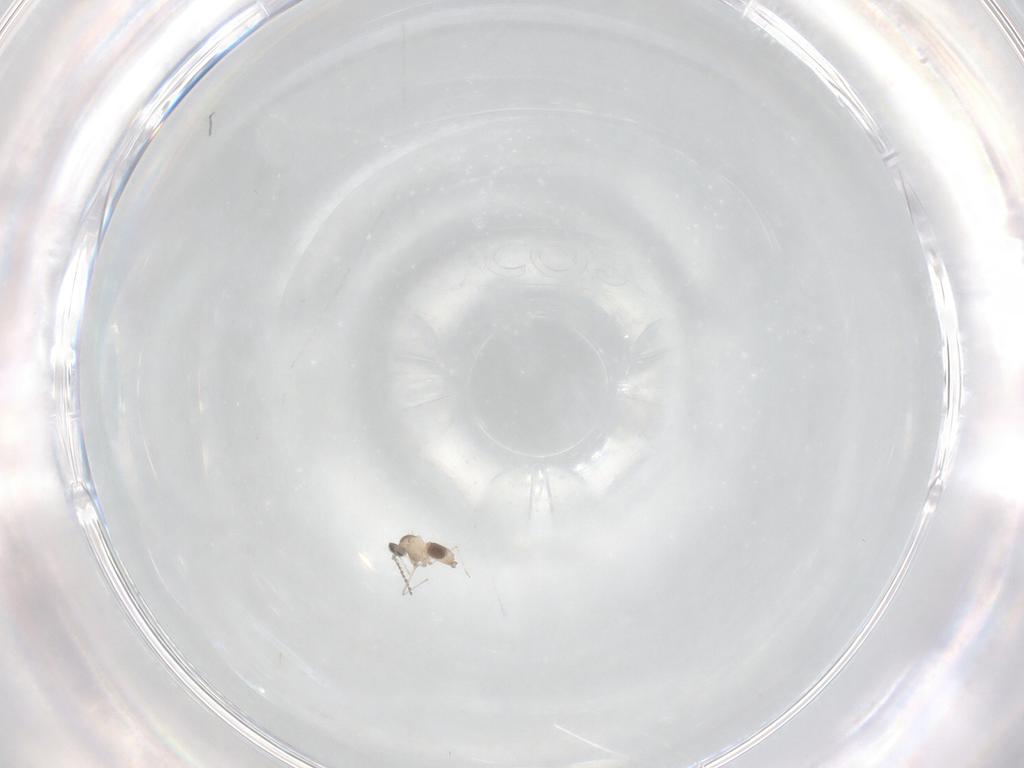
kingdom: Animalia
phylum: Arthropoda
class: Insecta
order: Diptera
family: Cecidomyiidae
